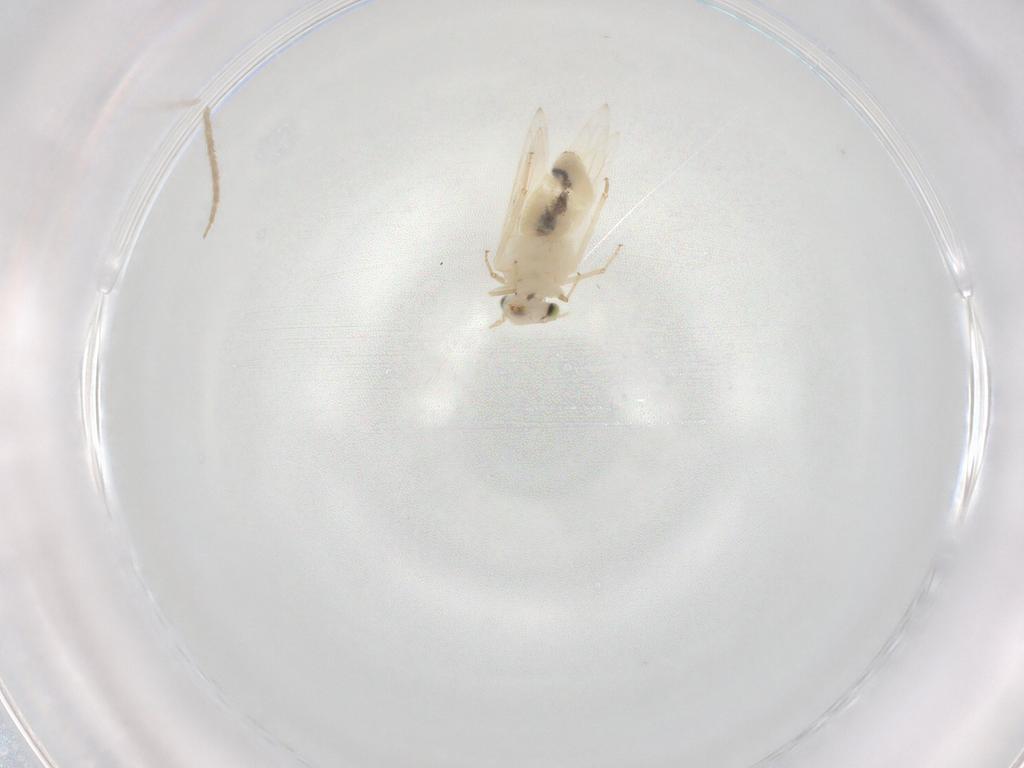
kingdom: Animalia
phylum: Arthropoda
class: Insecta
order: Psocodea
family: Lepidopsocidae
